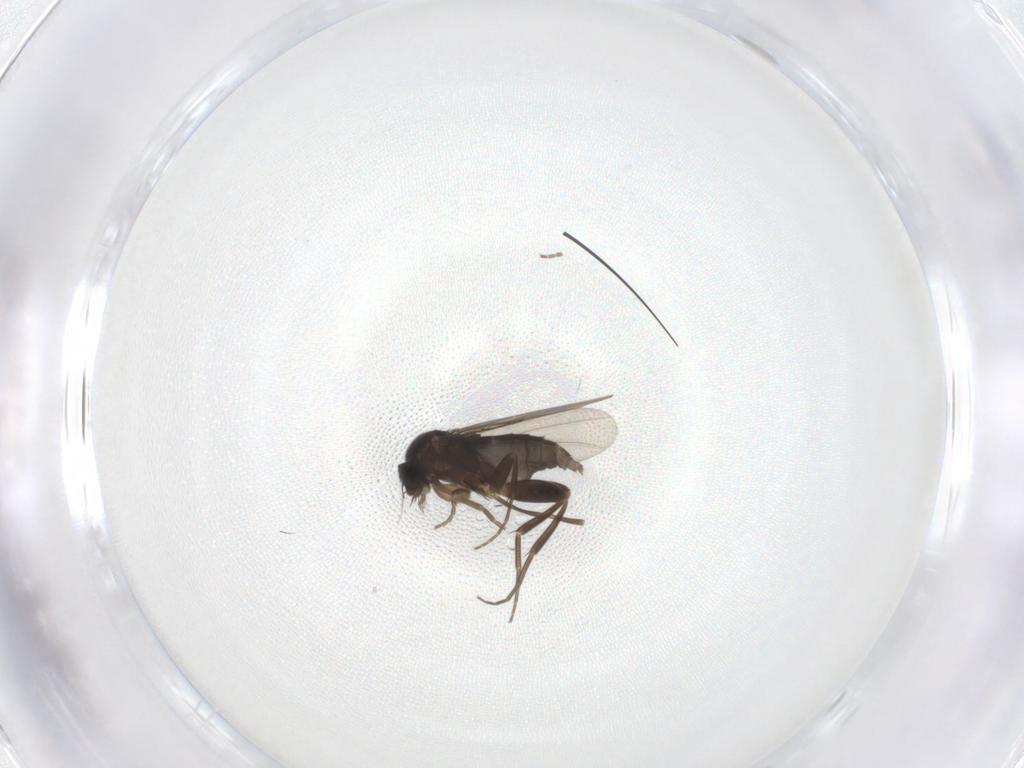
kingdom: Animalia
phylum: Arthropoda
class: Insecta
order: Diptera
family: Phoridae
